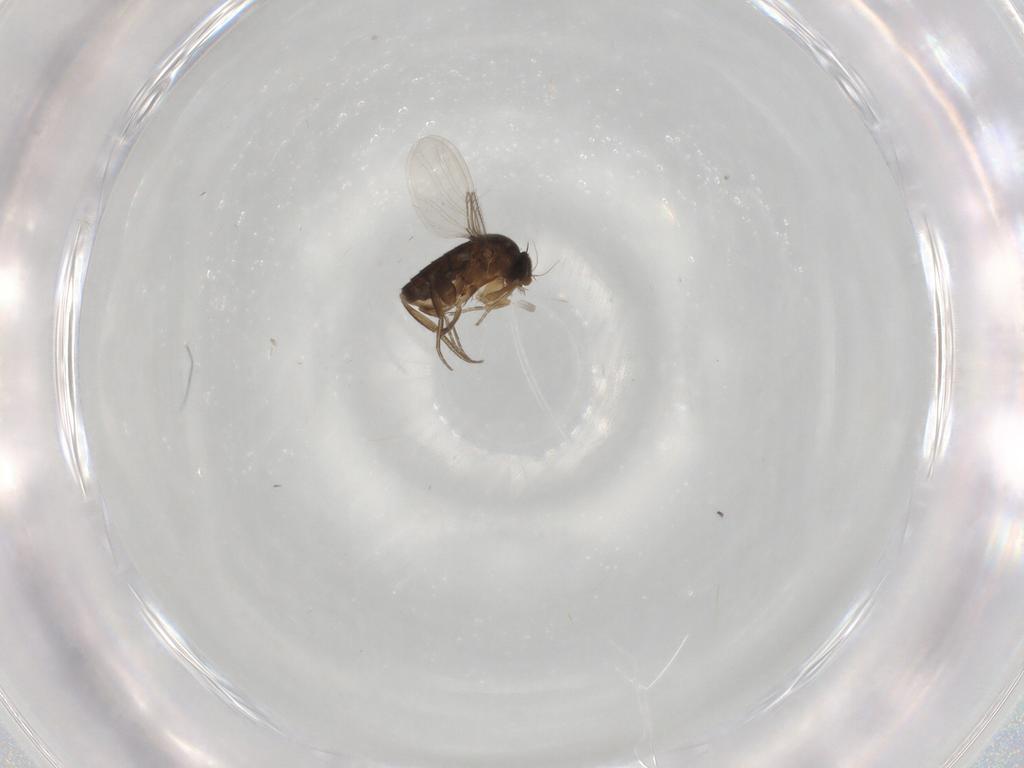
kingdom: Animalia
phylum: Arthropoda
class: Insecta
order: Diptera
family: Phoridae
